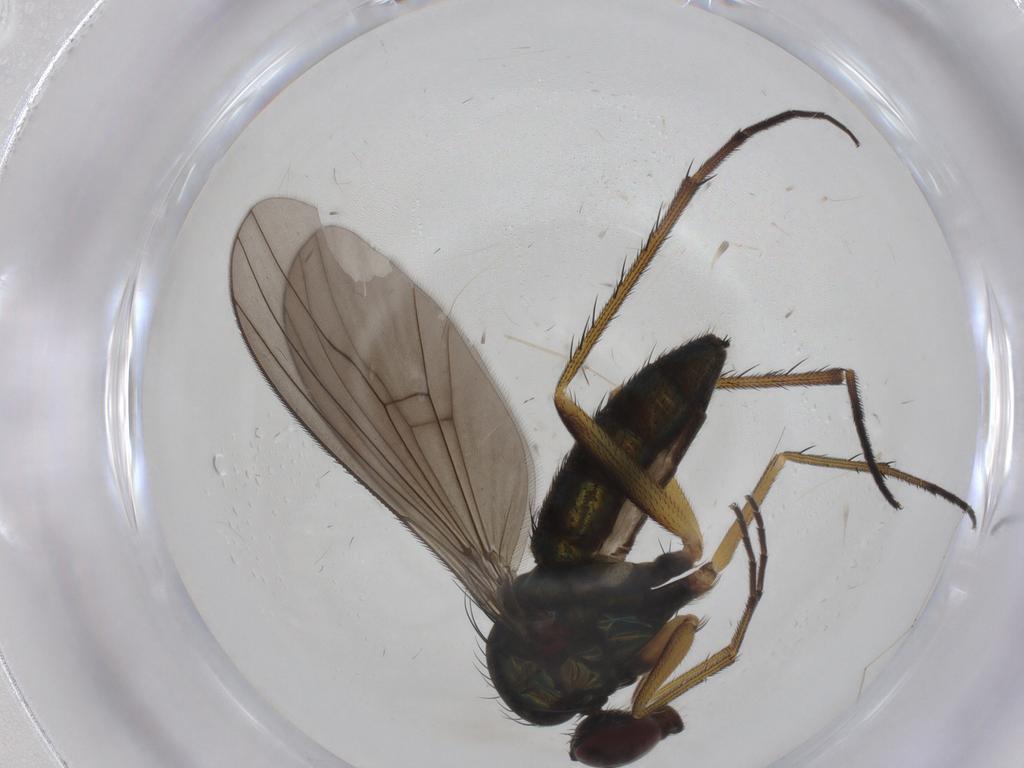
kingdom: Animalia
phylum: Arthropoda
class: Insecta
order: Diptera
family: Dolichopodidae
